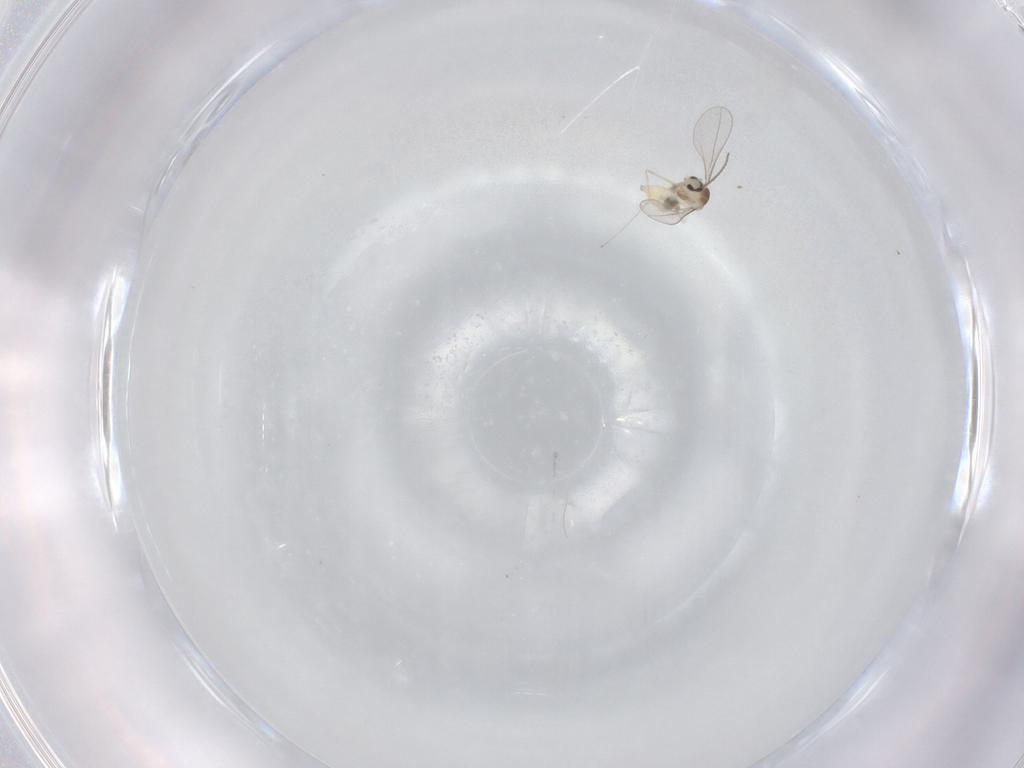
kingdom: Animalia
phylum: Arthropoda
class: Insecta
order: Diptera
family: Cecidomyiidae
